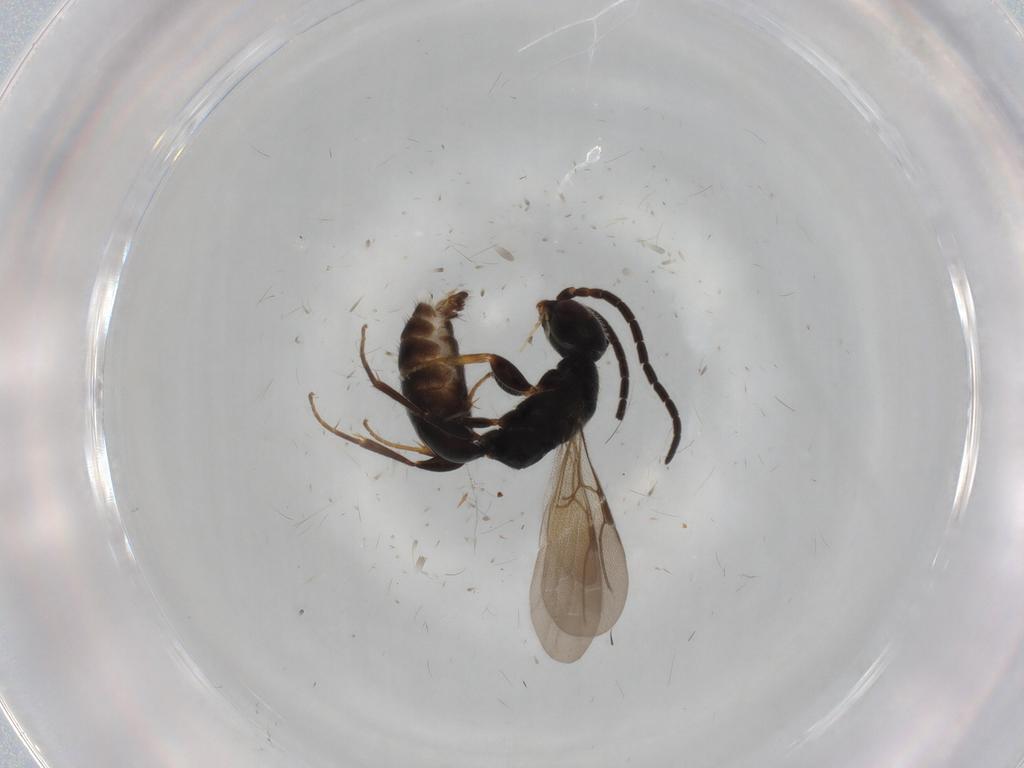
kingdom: Animalia
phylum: Arthropoda
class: Insecta
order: Hymenoptera
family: Bethylidae
